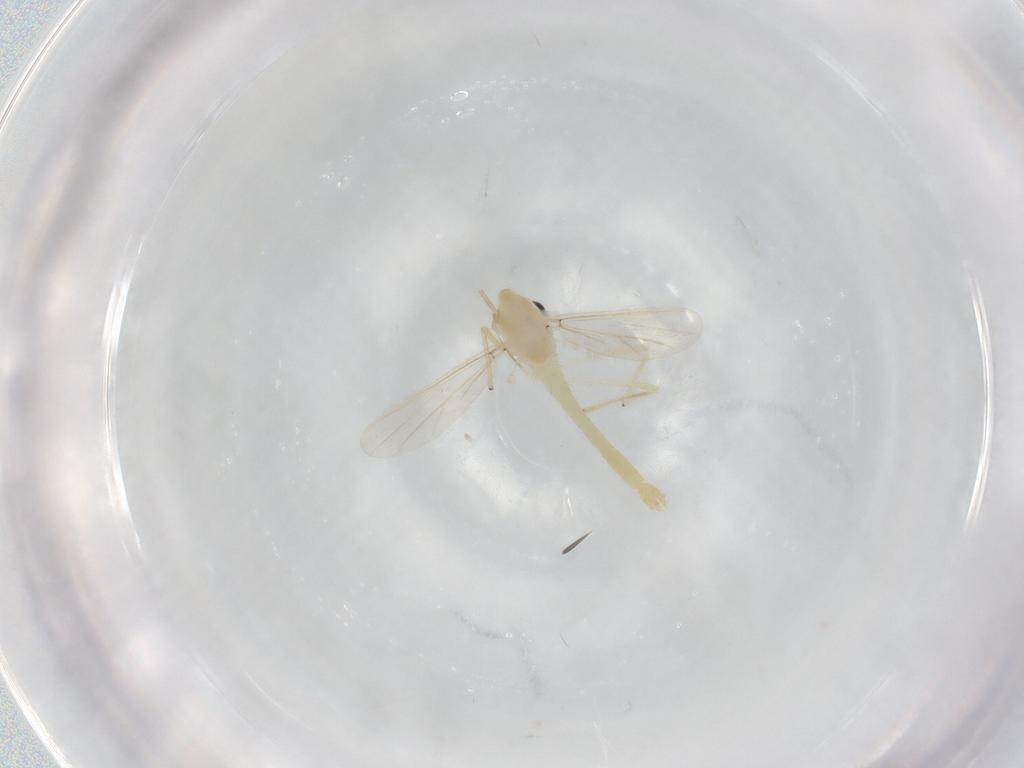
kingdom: Animalia
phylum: Arthropoda
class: Insecta
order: Diptera
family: Chironomidae
